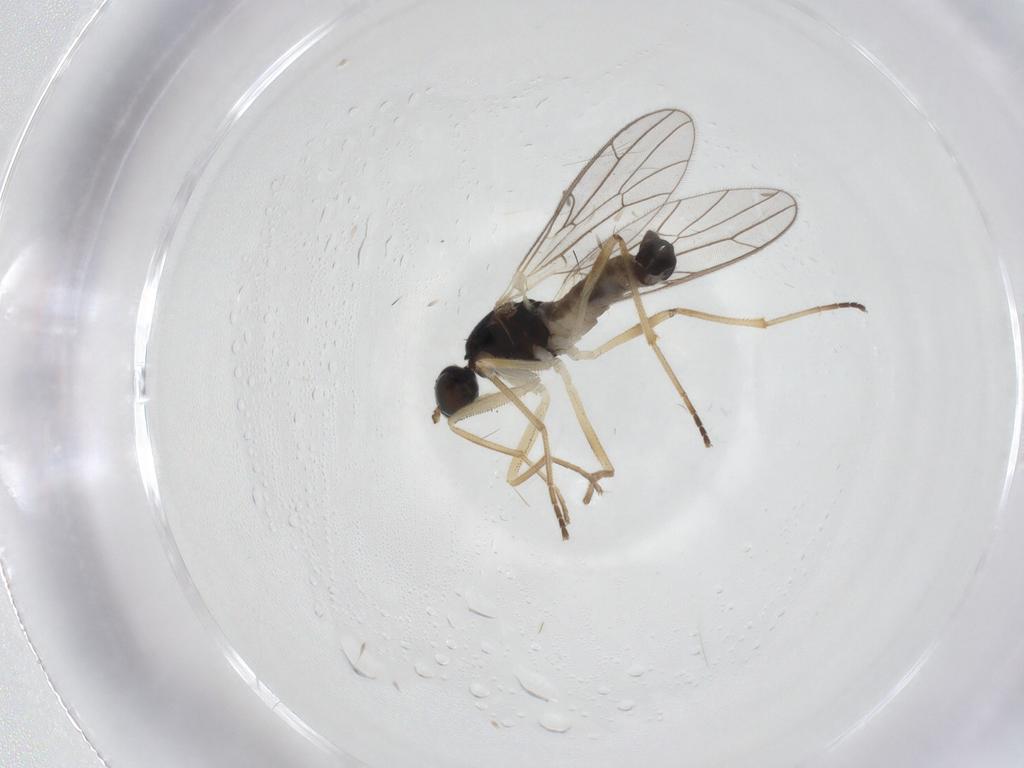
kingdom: Animalia
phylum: Arthropoda
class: Insecta
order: Diptera
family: Empididae
